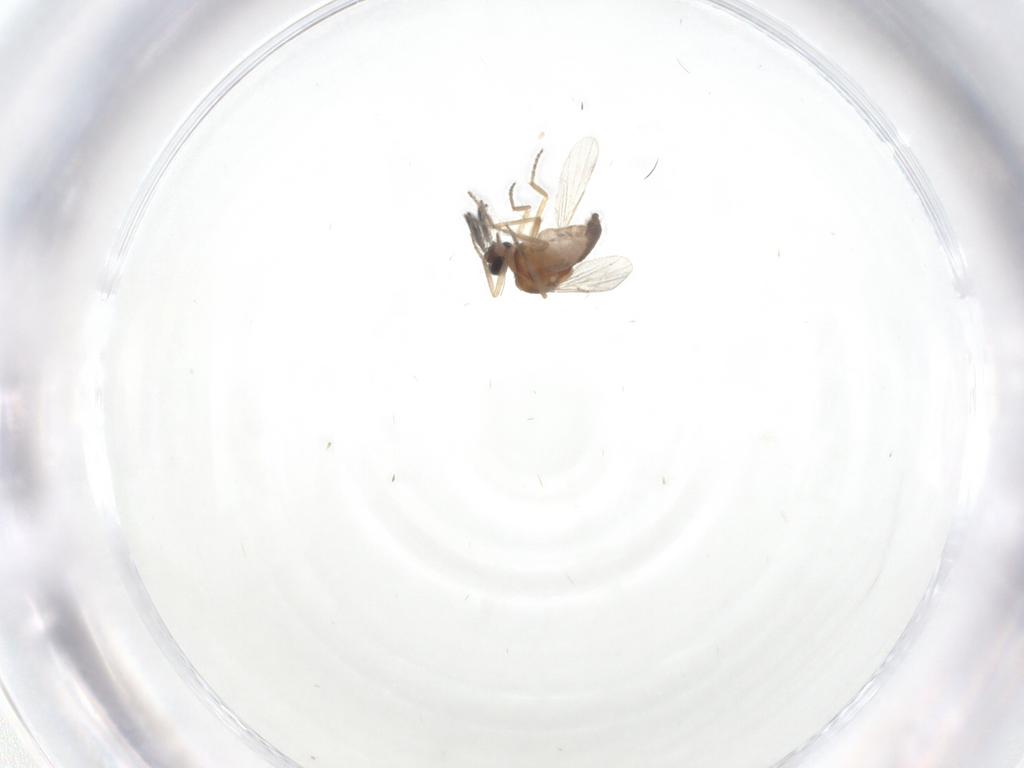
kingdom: Animalia
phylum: Arthropoda
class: Insecta
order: Diptera
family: Ceratopogonidae
